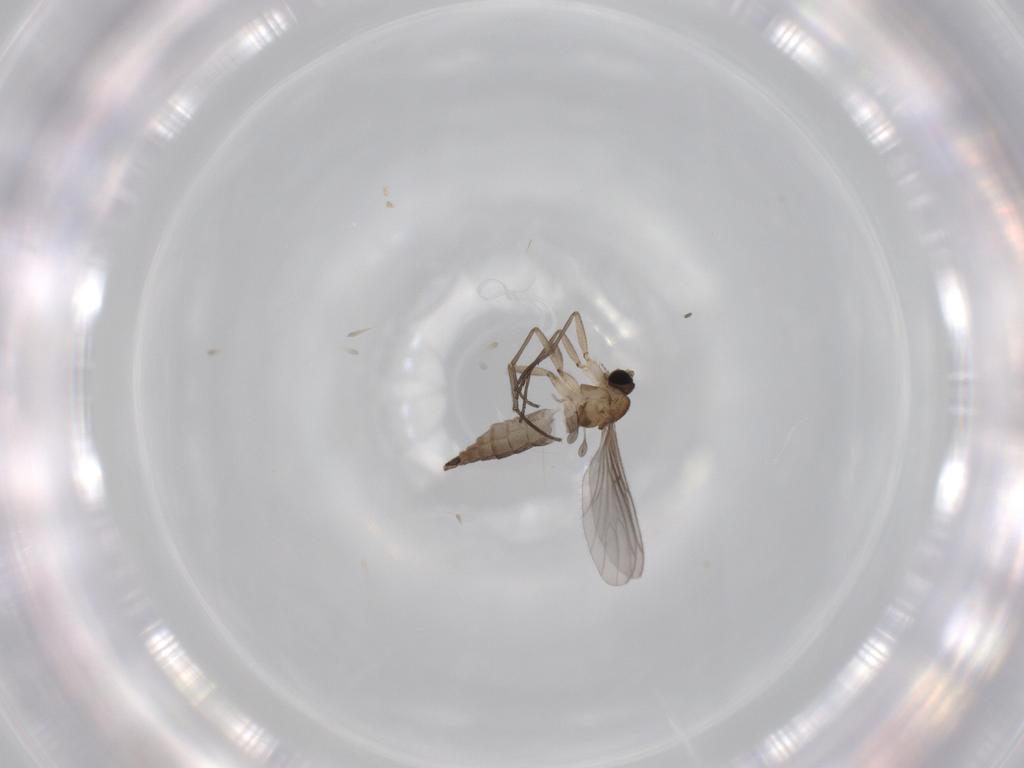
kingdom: Animalia
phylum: Arthropoda
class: Insecta
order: Diptera
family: Sciaridae
